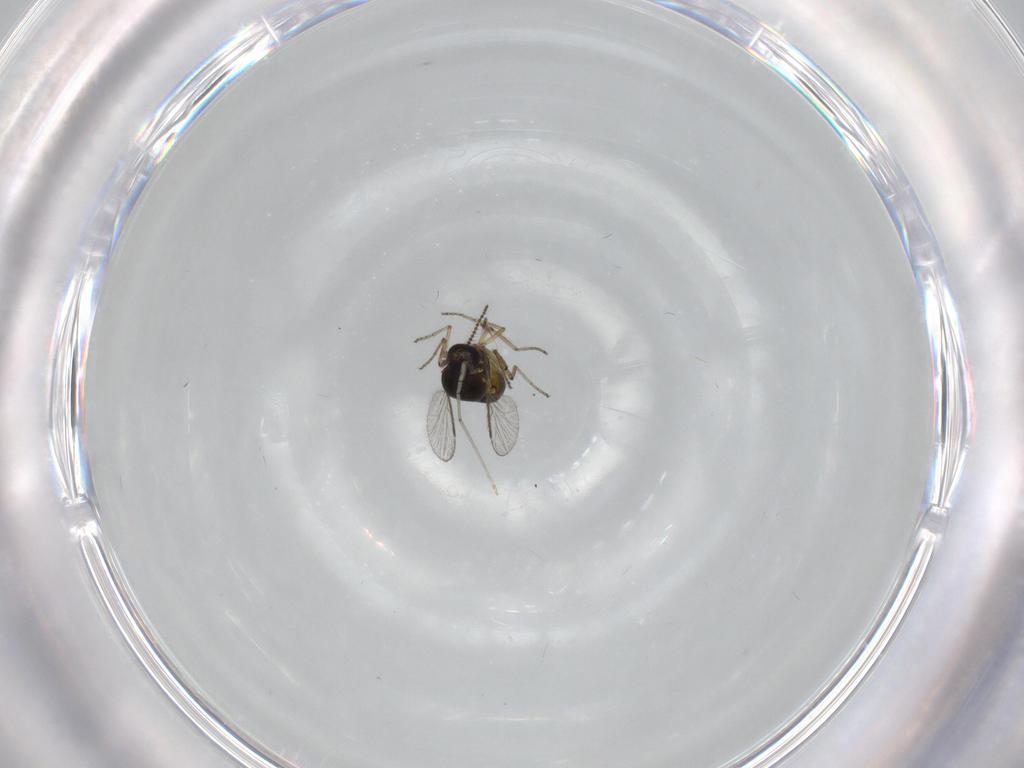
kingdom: Animalia
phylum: Arthropoda
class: Insecta
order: Diptera
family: Ceratopogonidae
